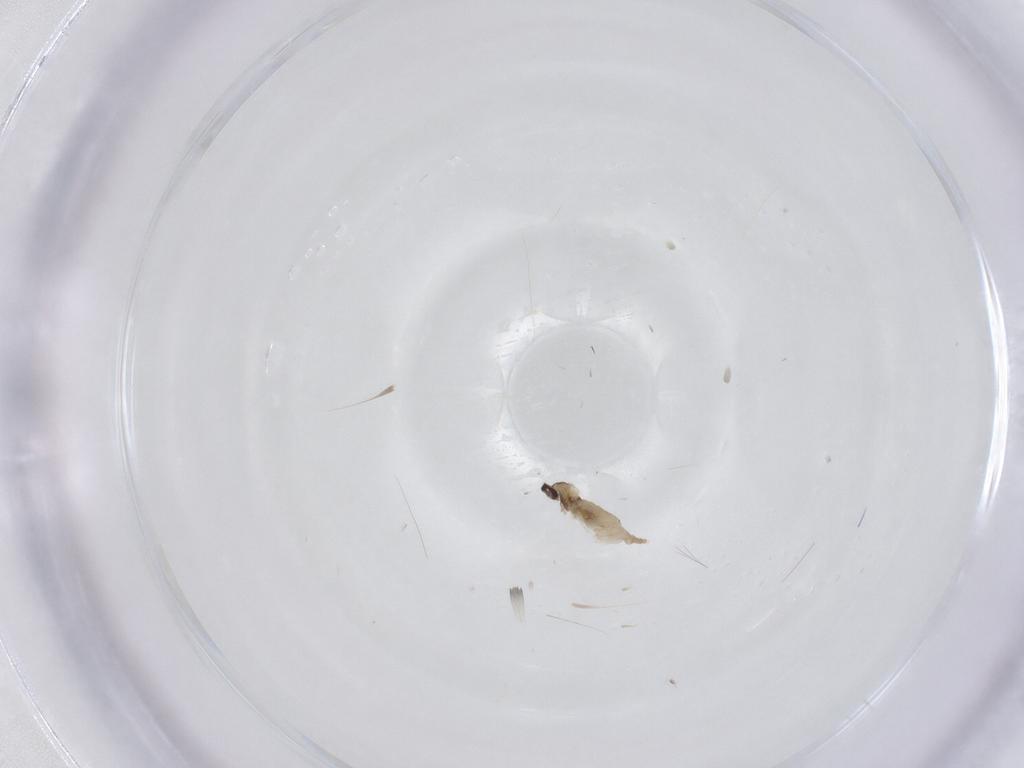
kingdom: Animalia
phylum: Arthropoda
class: Insecta
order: Diptera
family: Cecidomyiidae
